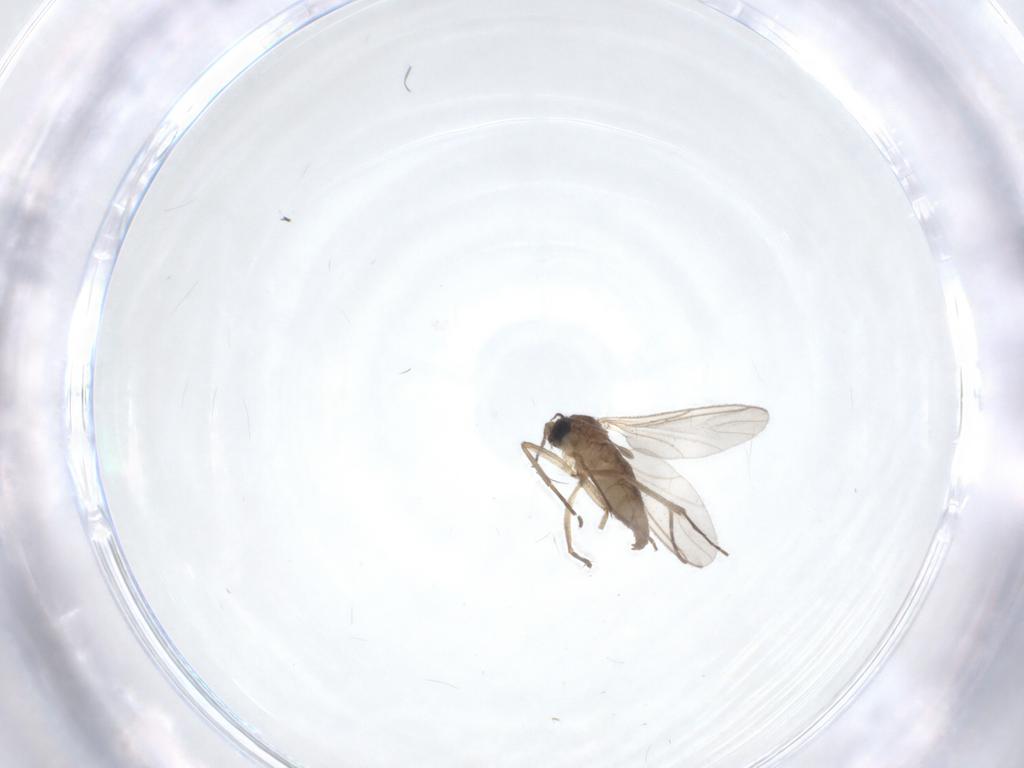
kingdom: Animalia
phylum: Arthropoda
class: Insecta
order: Diptera
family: Sciaridae
